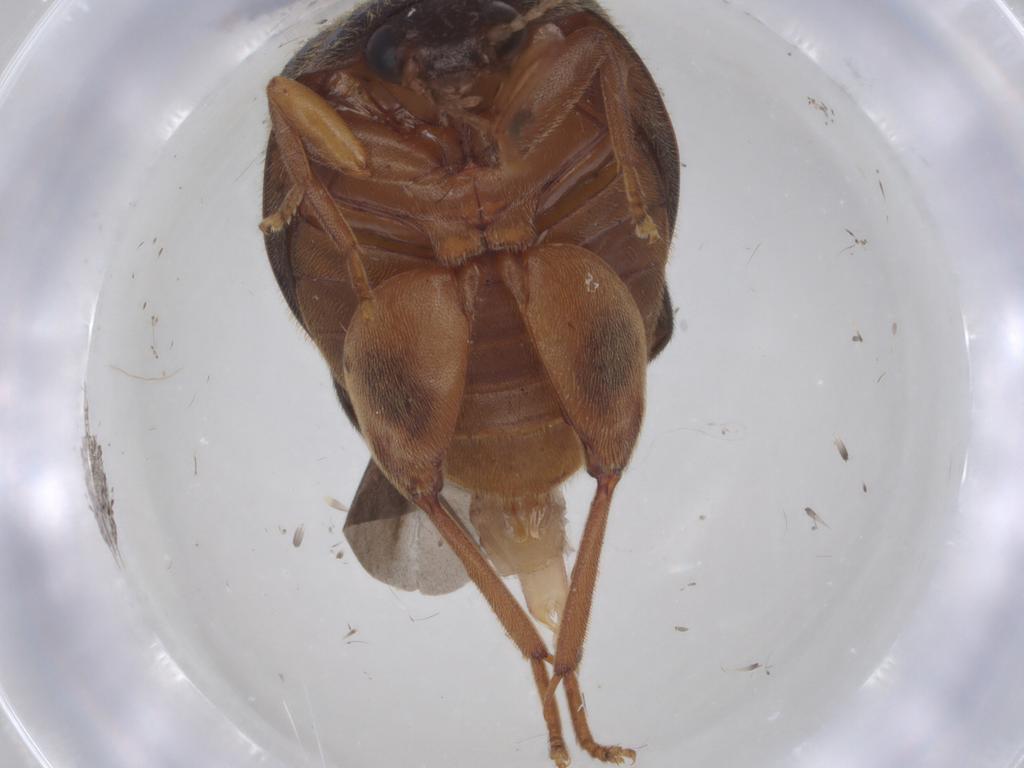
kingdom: Animalia
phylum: Arthropoda
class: Insecta
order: Coleoptera
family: Scirtidae
